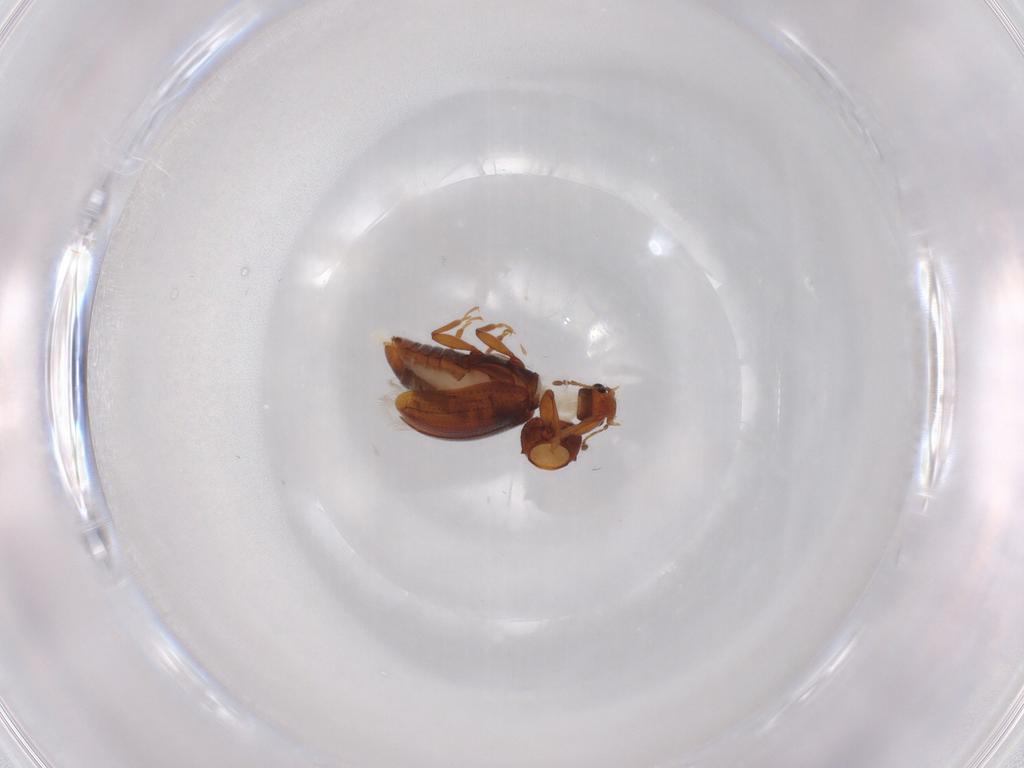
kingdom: Animalia
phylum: Arthropoda
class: Insecta
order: Coleoptera
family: Latridiidae
